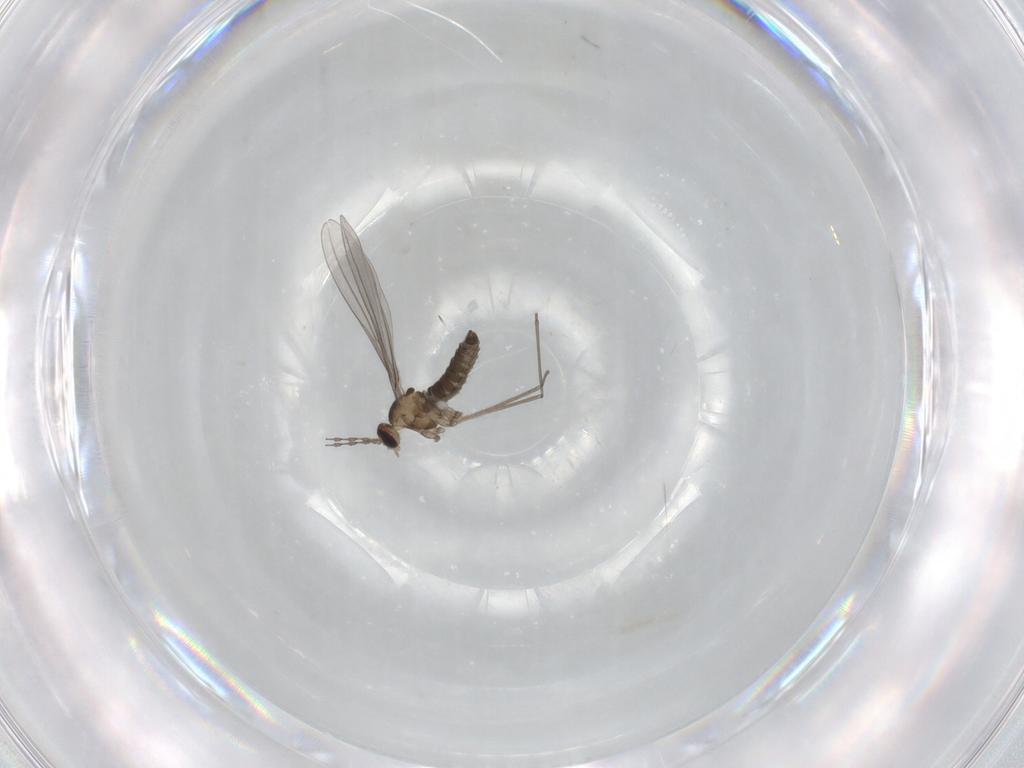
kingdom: Animalia
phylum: Arthropoda
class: Insecta
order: Diptera
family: Cecidomyiidae
